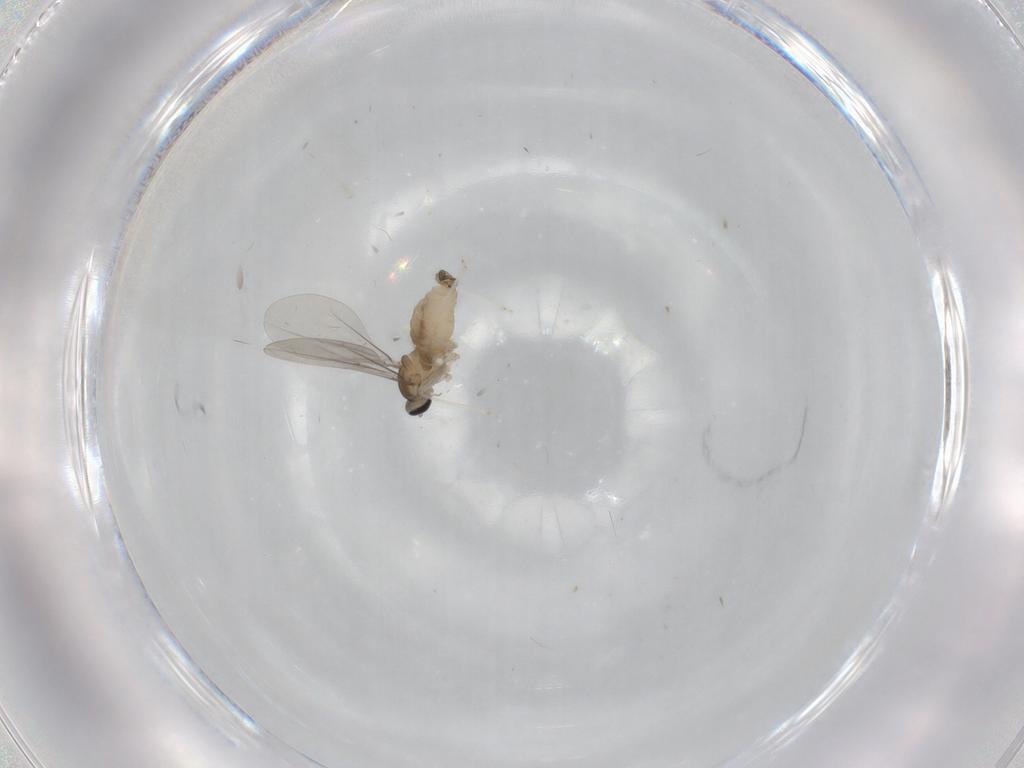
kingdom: Animalia
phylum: Arthropoda
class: Insecta
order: Diptera
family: Cecidomyiidae
